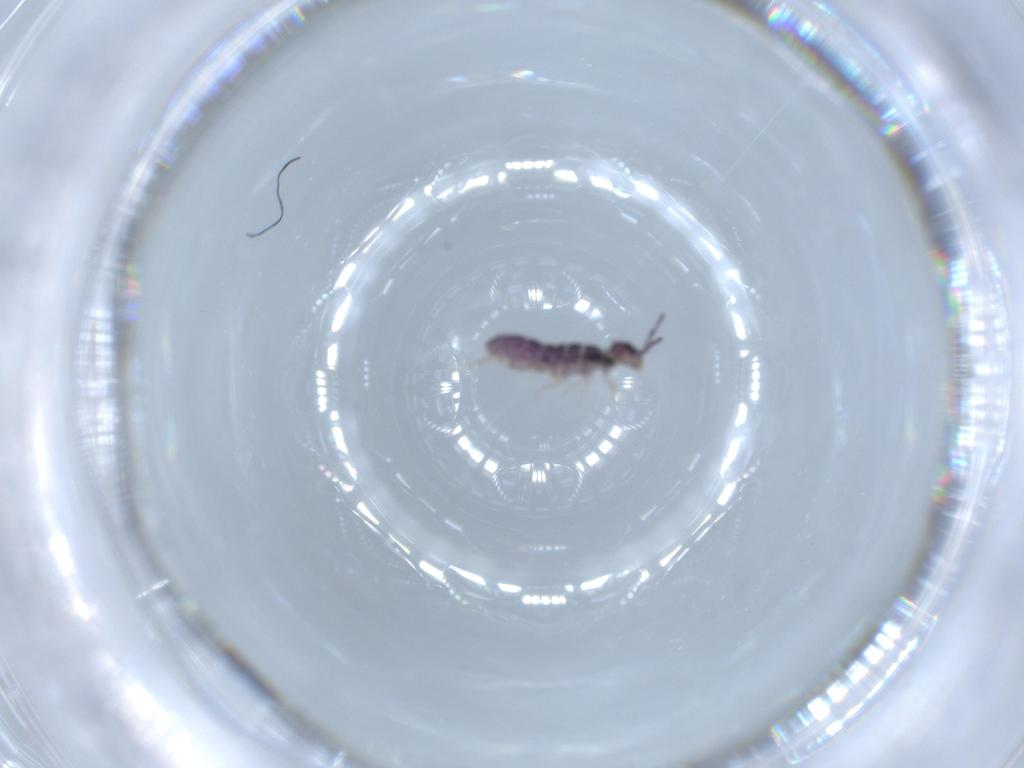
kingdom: Animalia
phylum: Arthropoda
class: Collembola
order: Entomobryomorpha
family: Isotomidae
